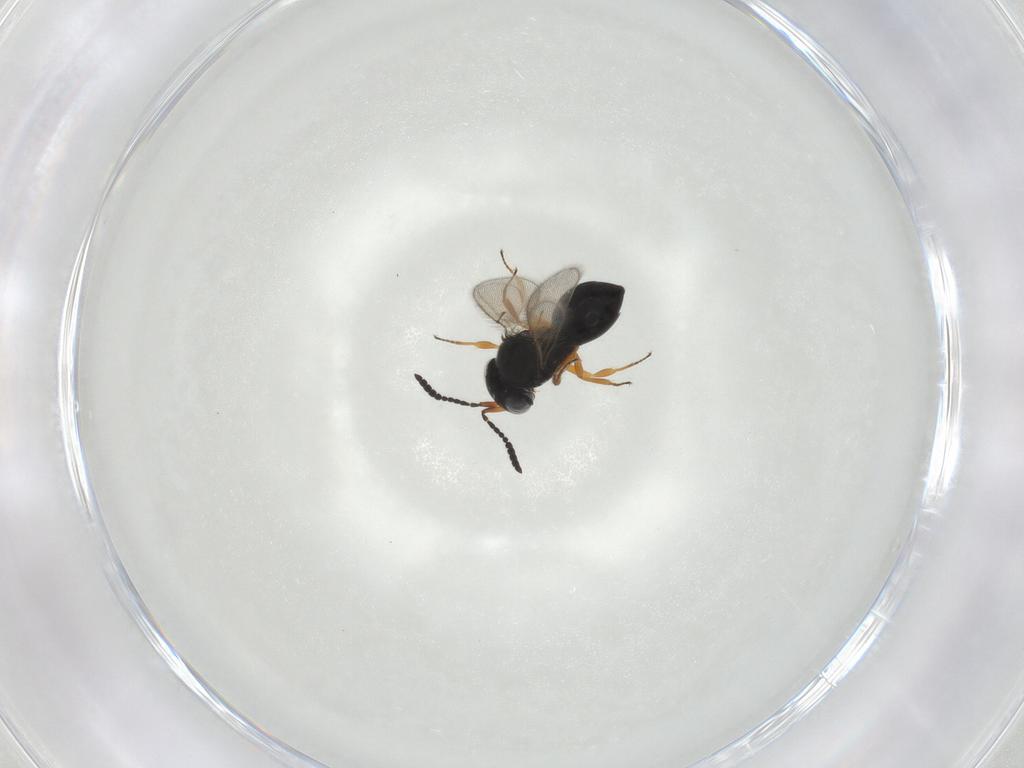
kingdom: Animalia
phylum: Arthropoda
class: Insecta
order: Hymenoptera
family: Scelionidae
